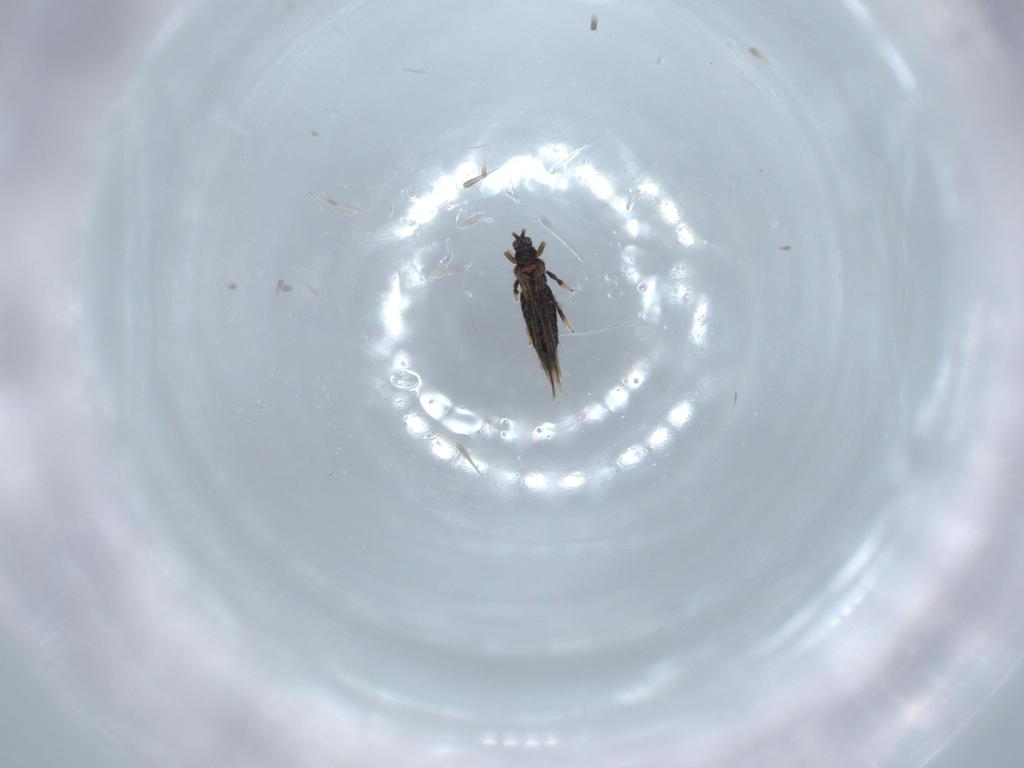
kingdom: Animalia
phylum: Arthropoda
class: Insecta
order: Thysanoptera
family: Thripidae
